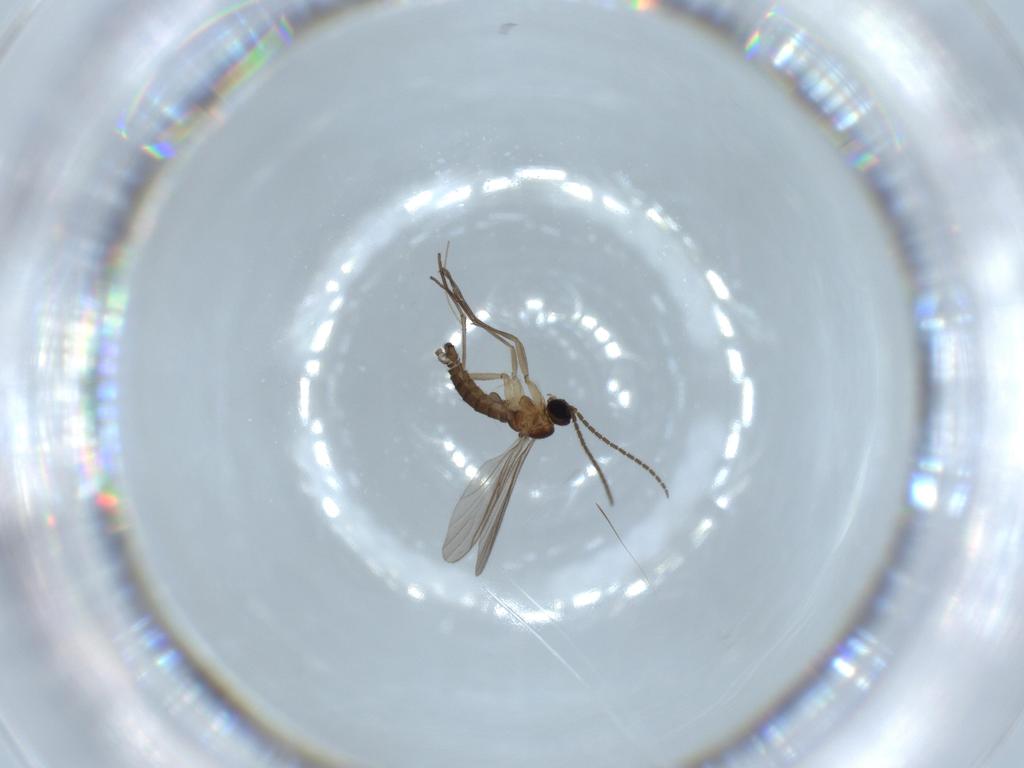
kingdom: Animalia
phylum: Arthropoda
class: Insecta
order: Diptera
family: Sciaridae
